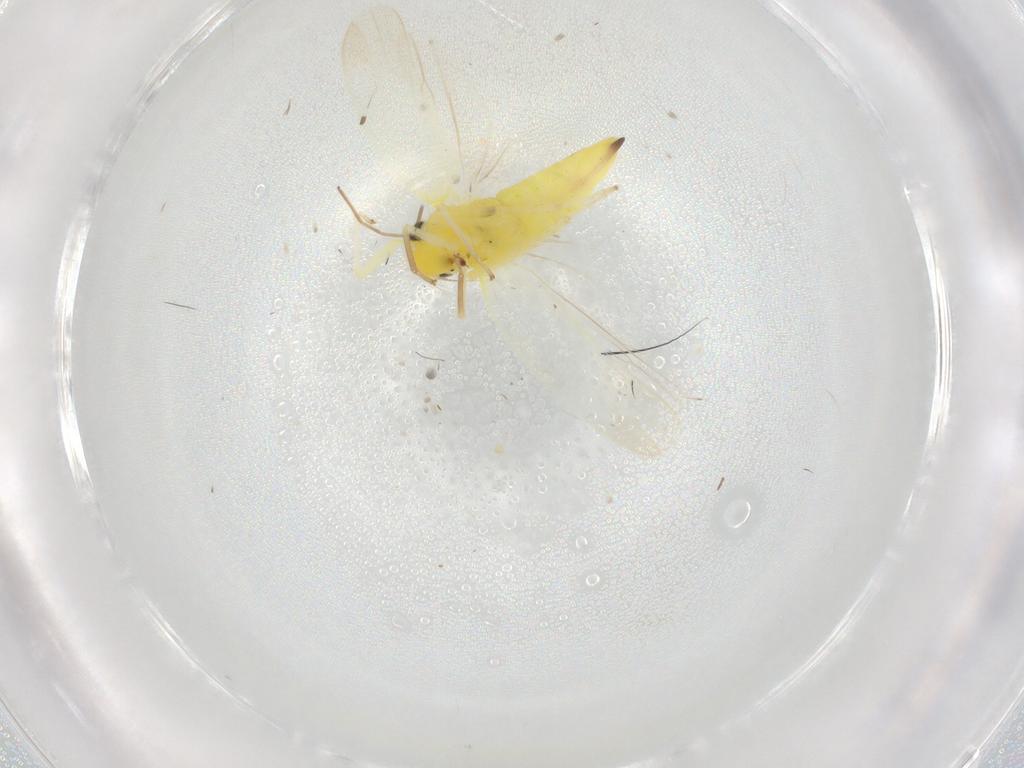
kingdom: Animalia
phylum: Arthropoda
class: Insecta
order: Hemiptera
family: Cicadellidae
